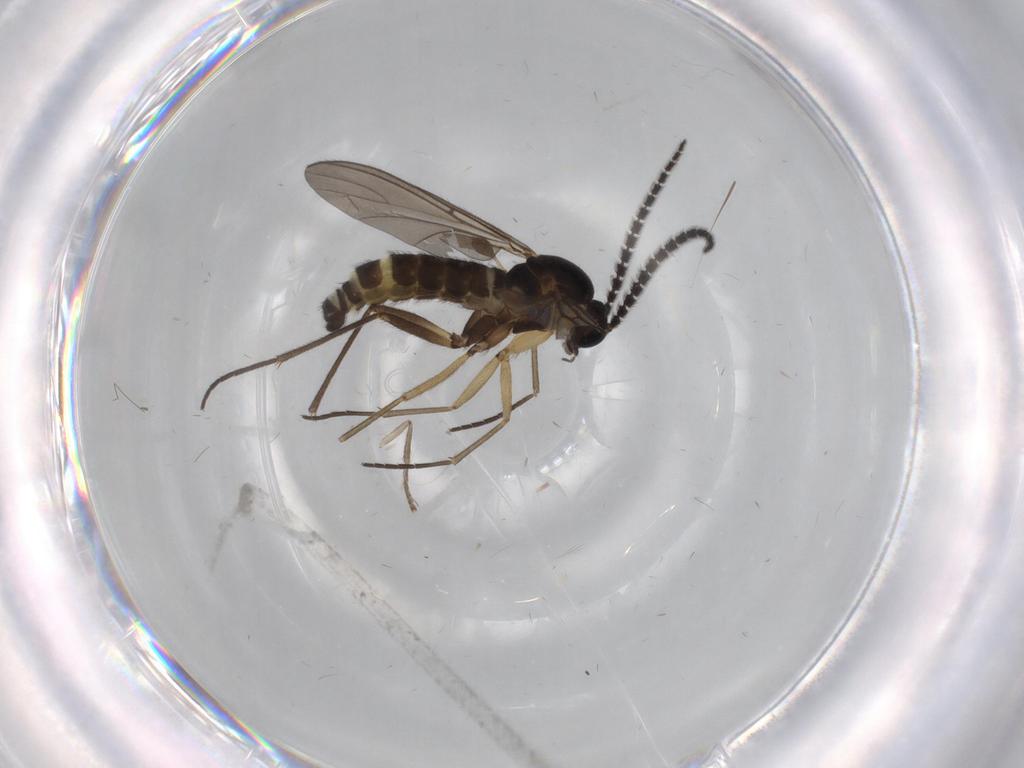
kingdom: Animalia
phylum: Arthropoda
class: Insecta
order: Diptera
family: Sciaridae
